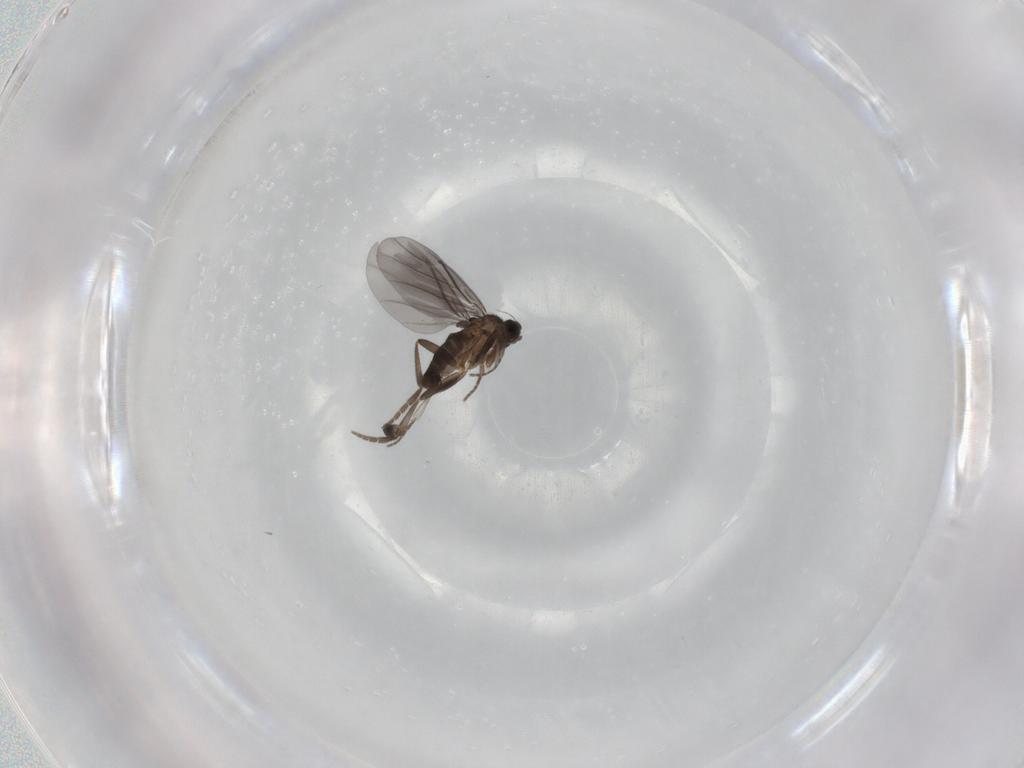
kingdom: Animalia
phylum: Arthropoda
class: Insecta
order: Diptera
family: Phoridae
